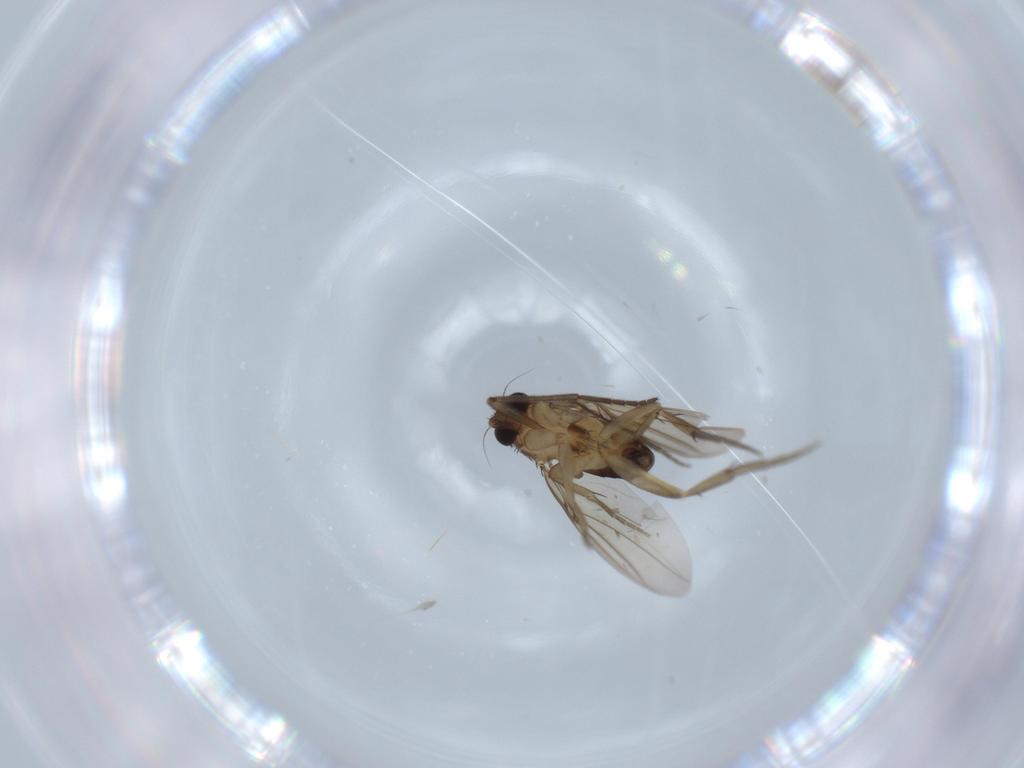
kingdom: Animalia
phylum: Arthropoda
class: Insecta
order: Diptera
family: Phoridae
